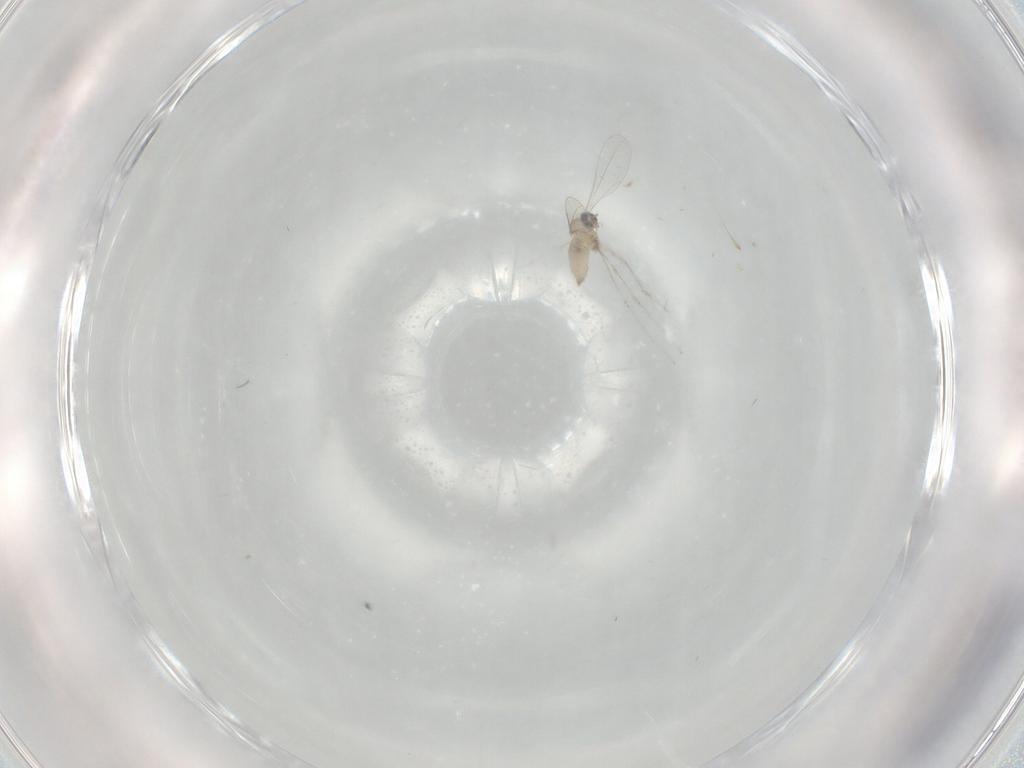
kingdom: Animalia
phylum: Arthropoda
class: Insecta
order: Diptera
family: Cecidomyiidae
